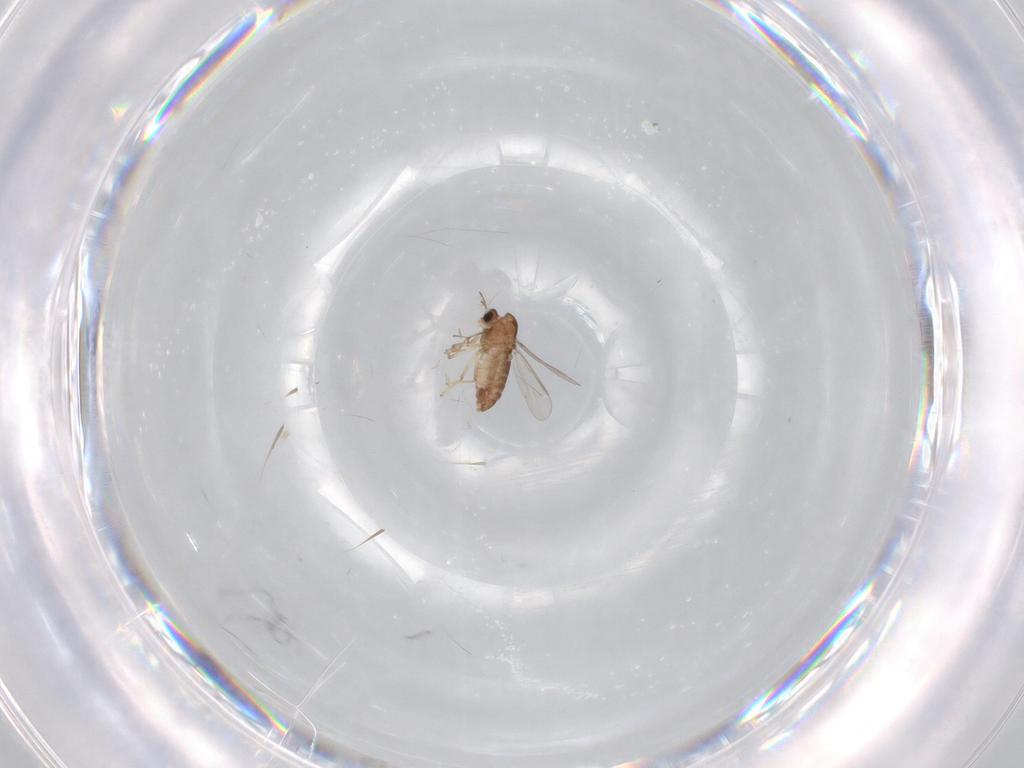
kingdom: Animalia
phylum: Arthropoda
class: Insecta
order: Diptera
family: Chironomidae
